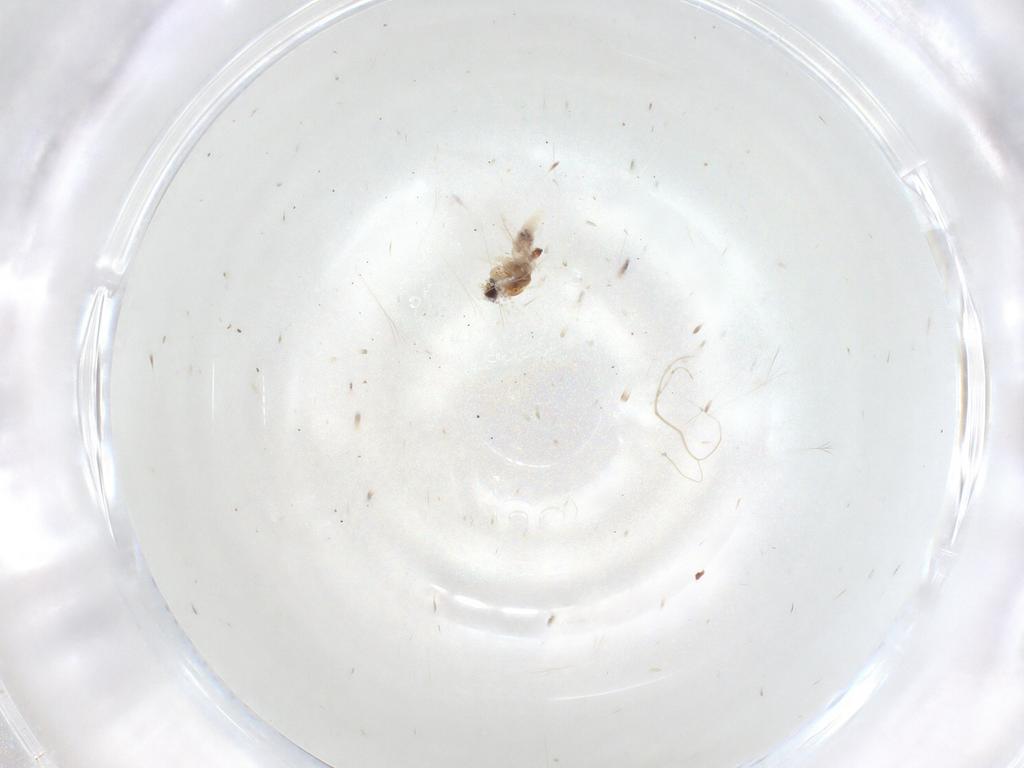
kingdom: Animalia
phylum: Arthropoda
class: Insecta
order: Diptera
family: Cecidomyiidae
